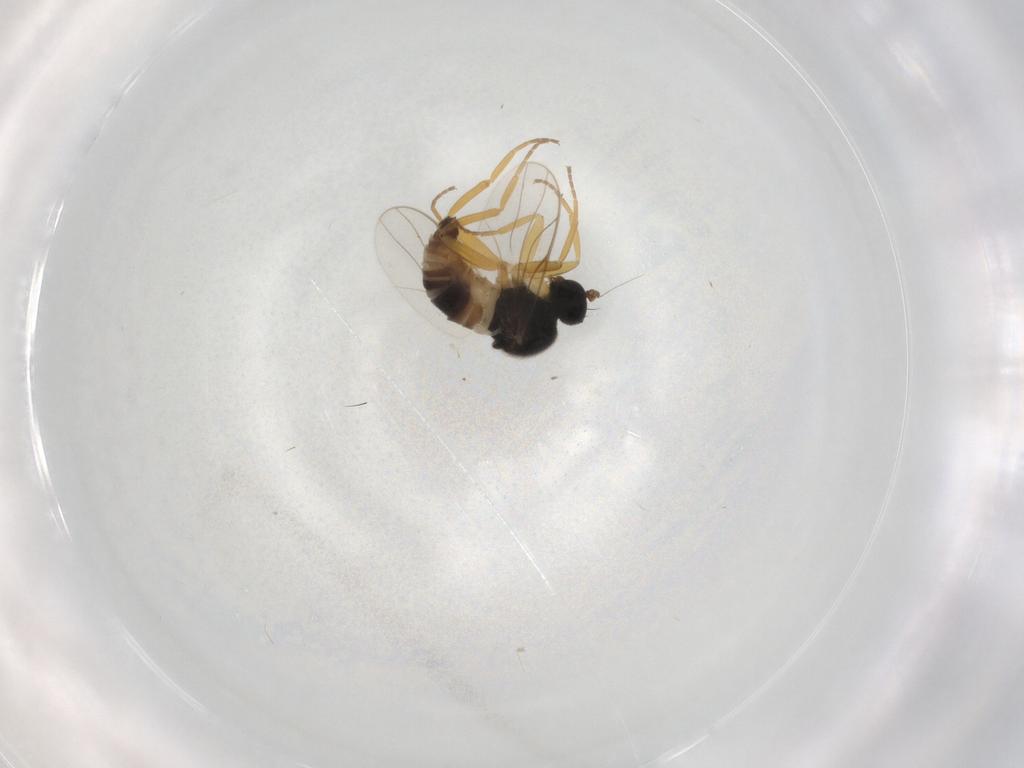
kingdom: Animalia
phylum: Arthropoda
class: Insecta
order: Diptera
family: Hybotidae
